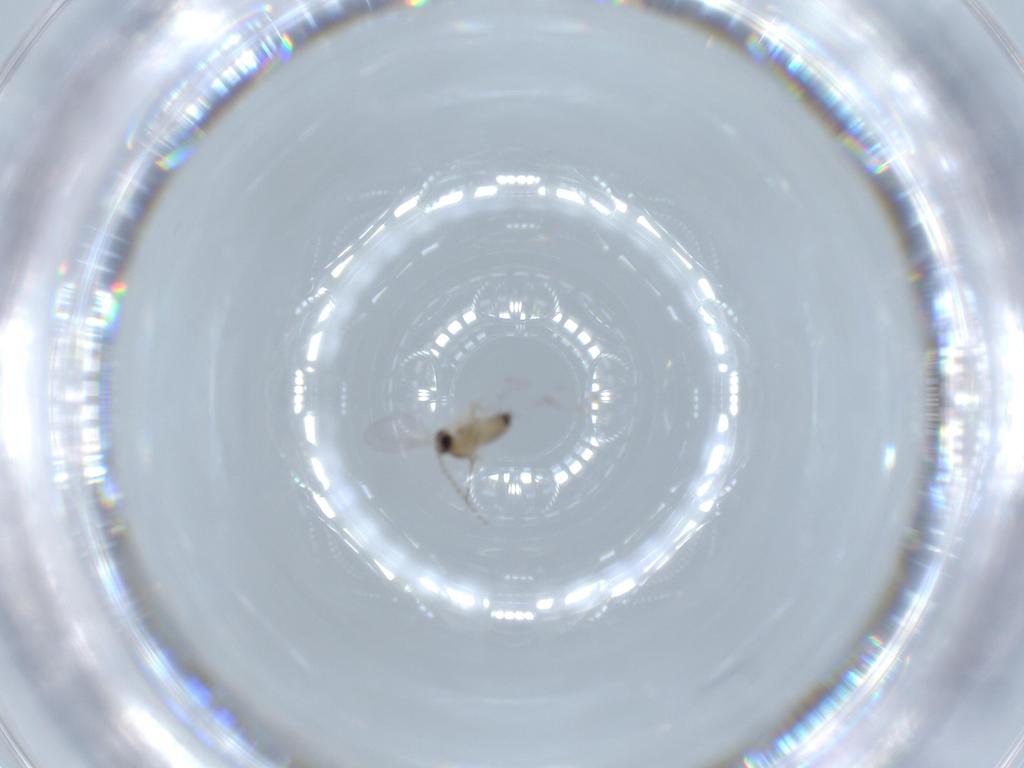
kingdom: Animalia
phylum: Arthropoda
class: Insecta
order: Diptera
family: Cecidomyiidae
